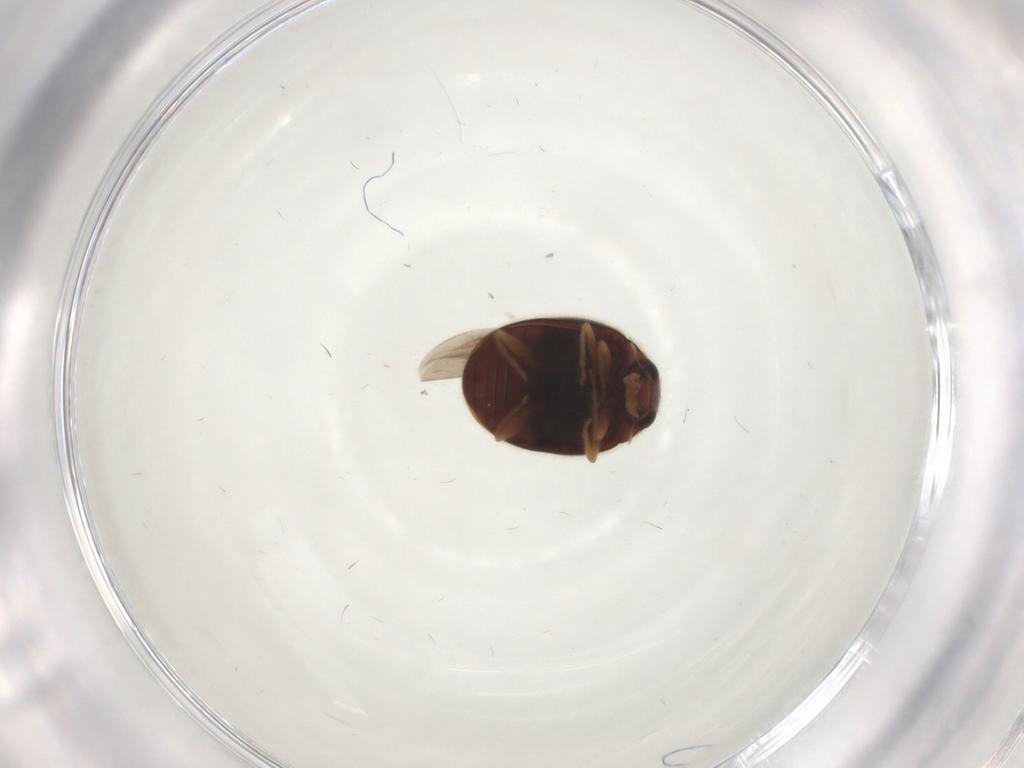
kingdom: Animalia
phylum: Arthropoda
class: Insecta
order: Coleoptera
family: Coccinellidae
